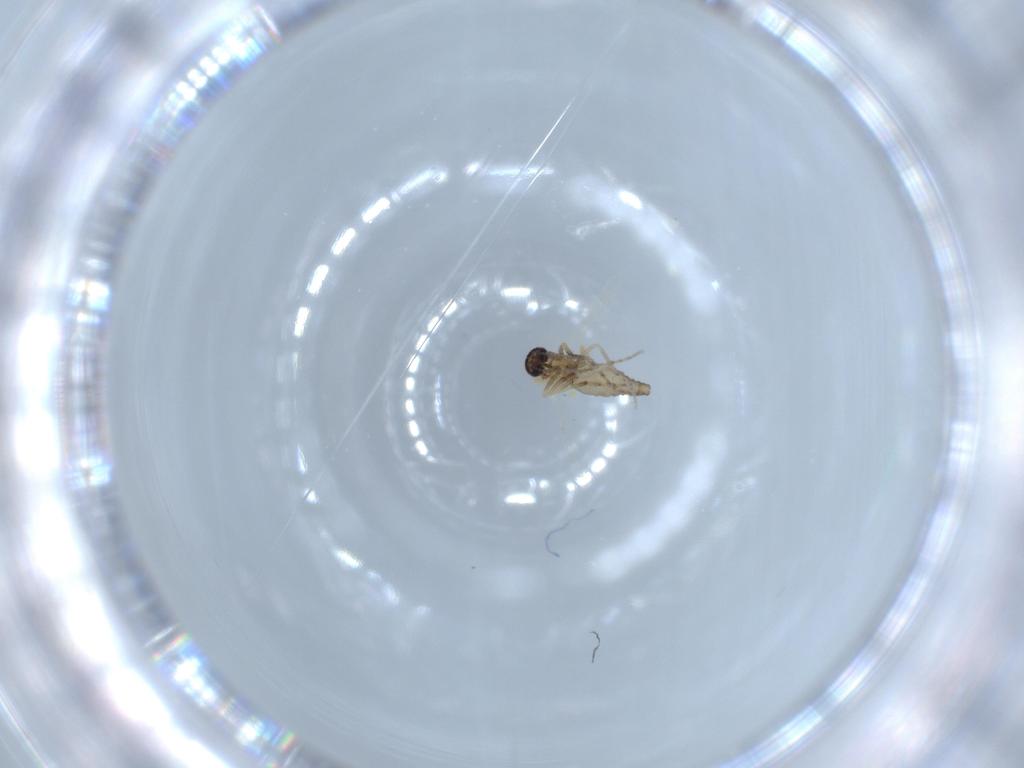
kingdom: Animalia
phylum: Arthropoda
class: Insecta
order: Diptera
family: Ceratopogonidae
